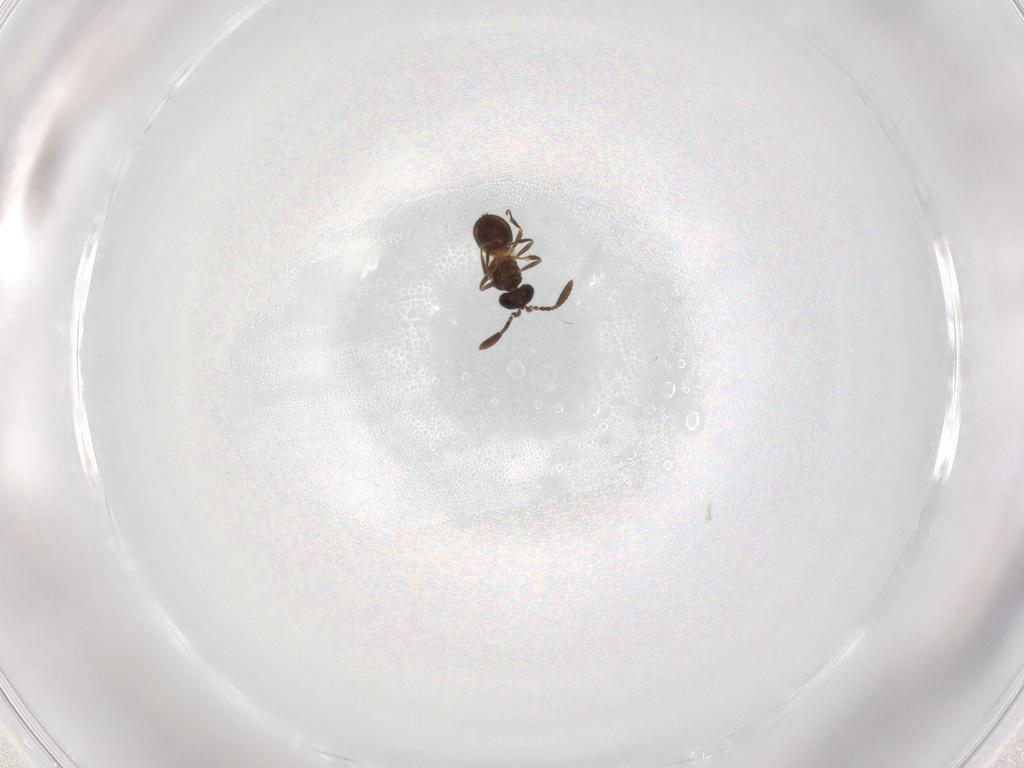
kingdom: Animalia
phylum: Arthropoda
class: Insecta
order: Hymenoptera
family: Scelionidae
